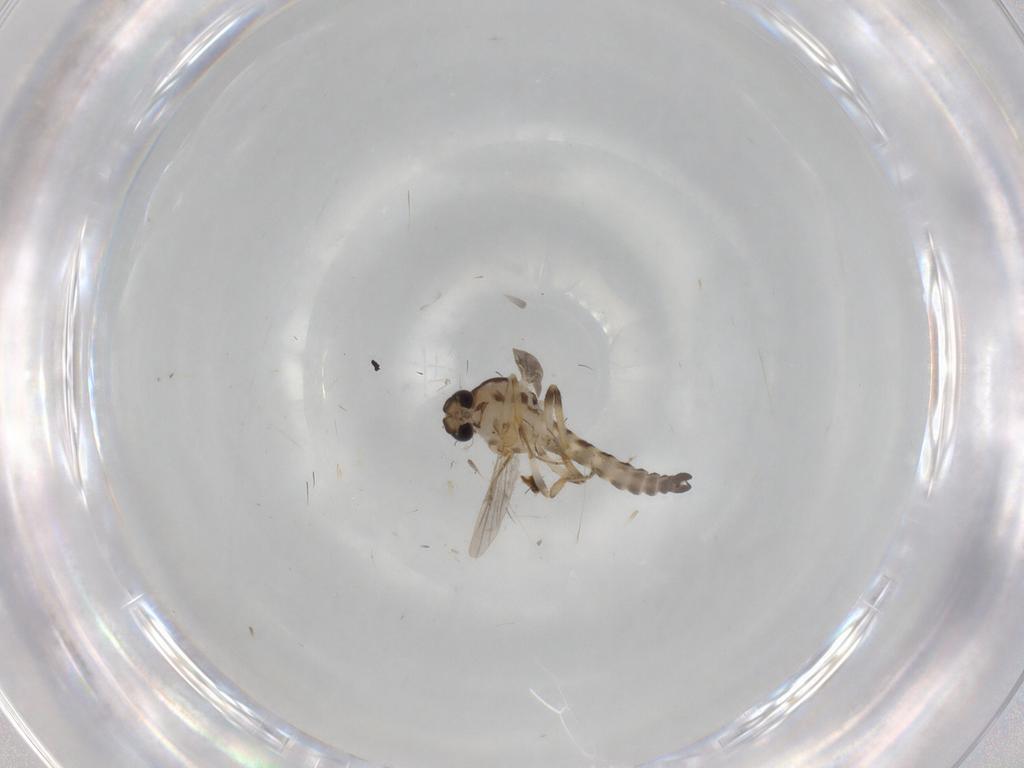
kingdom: Animalia
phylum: Arthropoda
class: Insecta
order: Diptera
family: Ceratopogonidae
